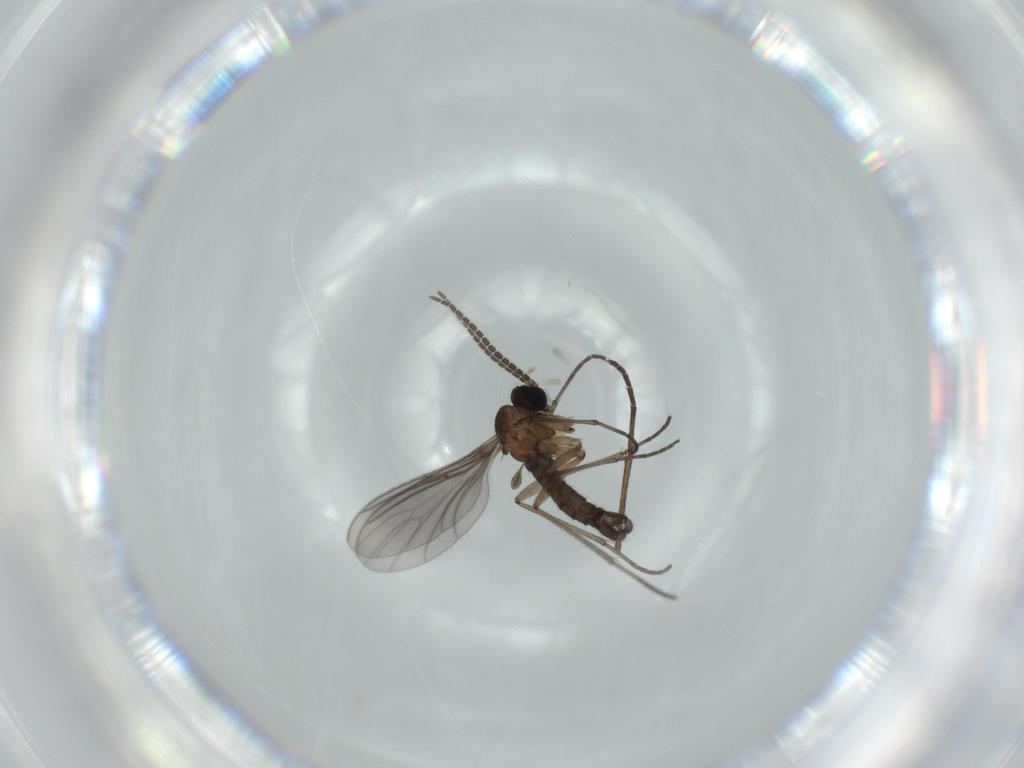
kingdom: Animalia
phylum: Arthropoda
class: Insecta
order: Diptera
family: Sciaridae
